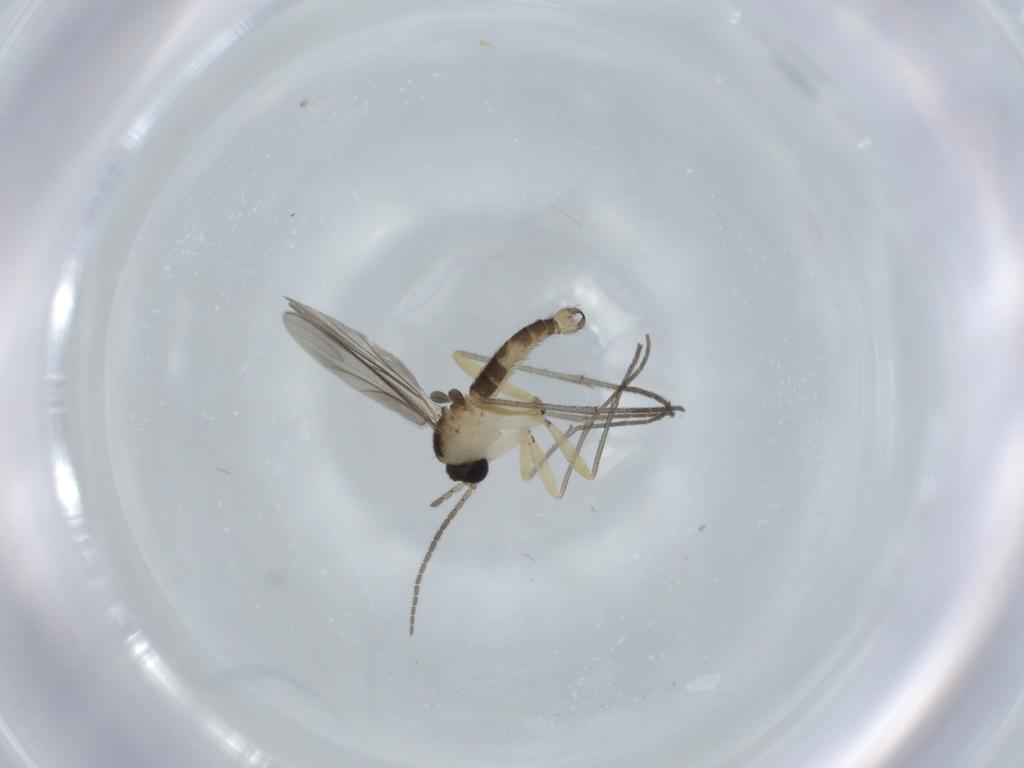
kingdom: Animalia
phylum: Arthropoda
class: Insecta
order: Diptera
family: Sciaridae
